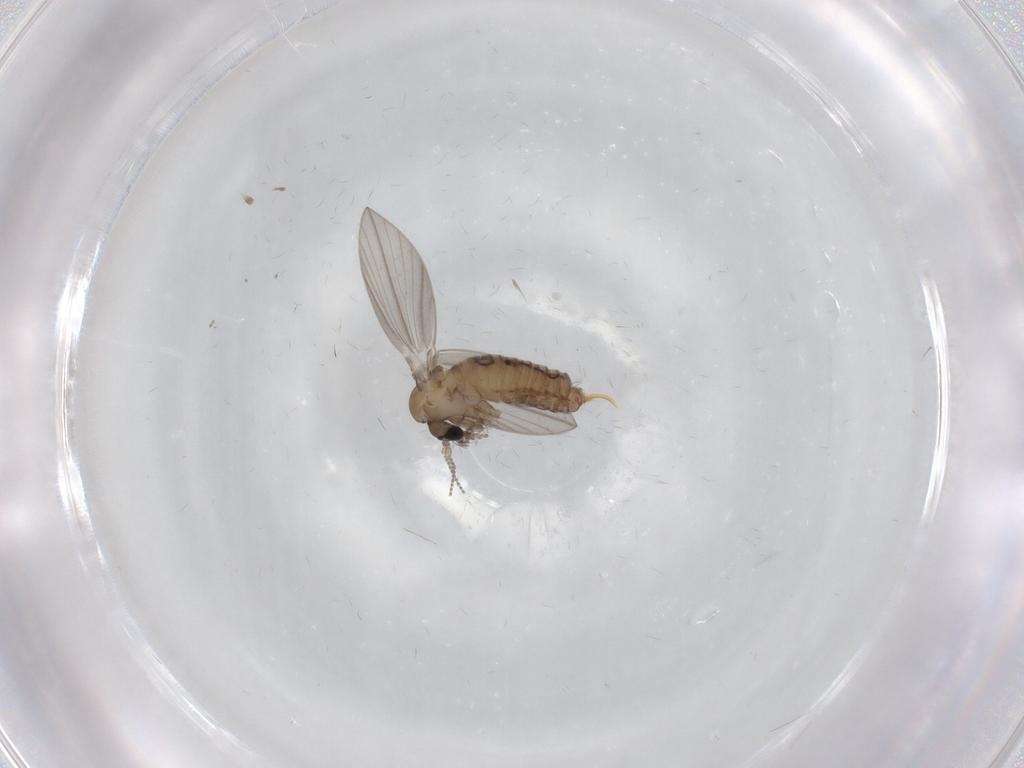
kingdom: Animalia
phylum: Arthropoda
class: Insecta
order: Diptera
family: Psychodidae
